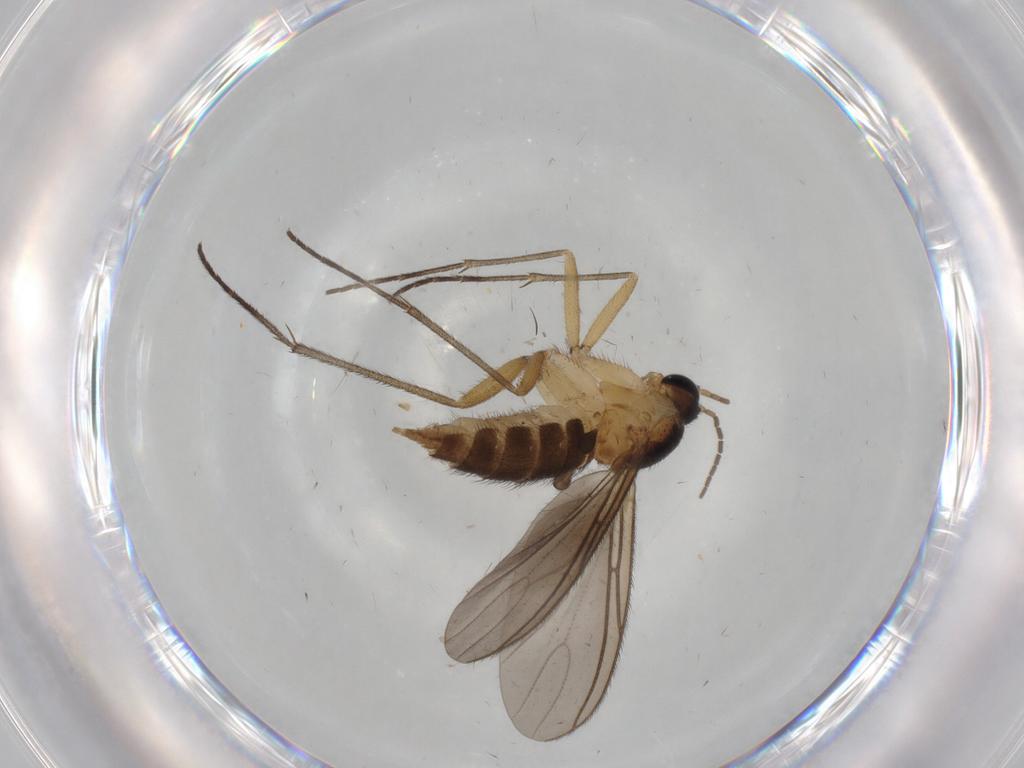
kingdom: Animalia
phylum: Arthropoda
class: Insecta
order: Diptera
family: Sciaridae
